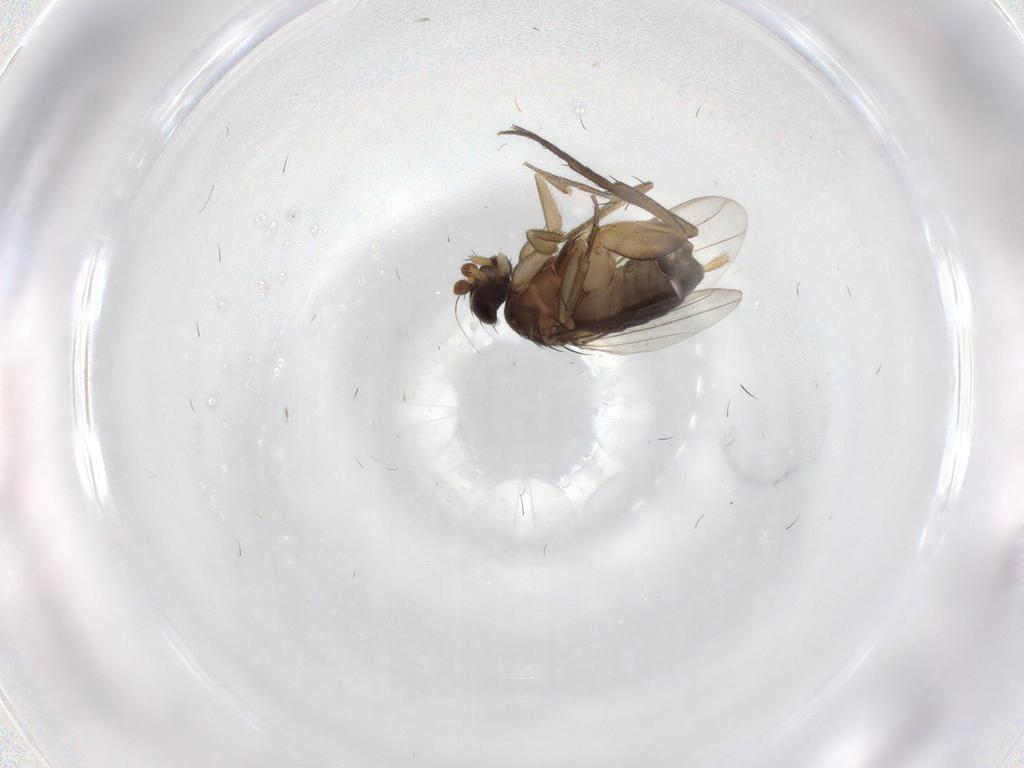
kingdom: Animalia
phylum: Arthropoda
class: Insecta
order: Diptera
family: Phoridae
